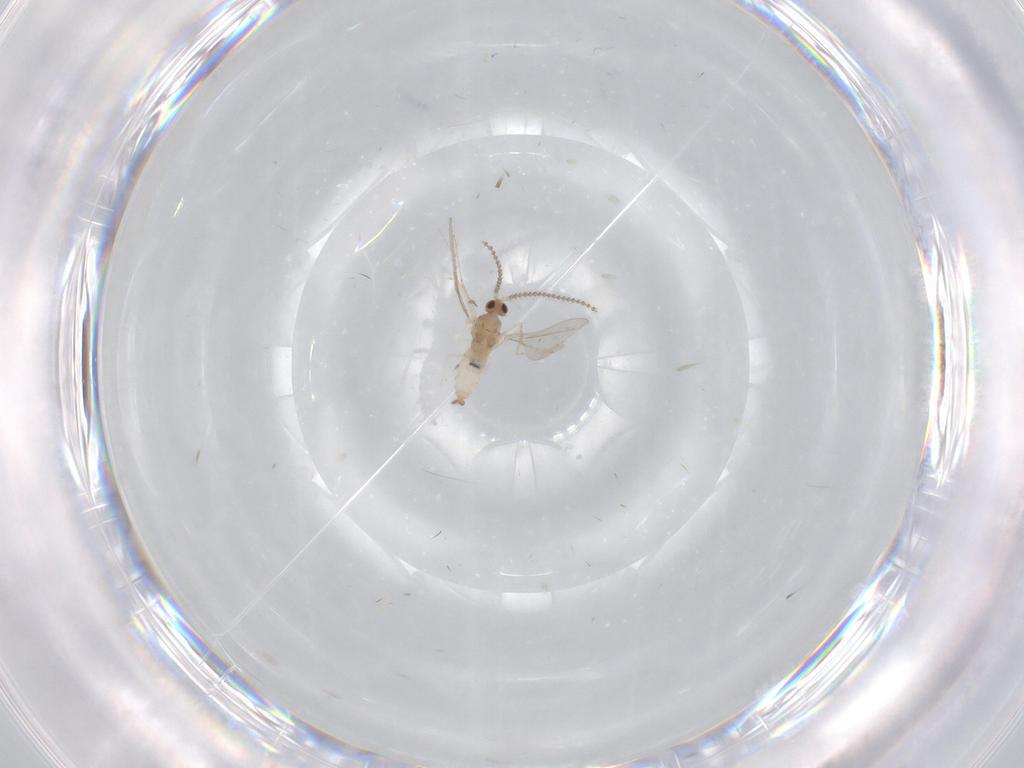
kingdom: Animalia
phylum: Arthropoda
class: Insecta
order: Diptera
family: Cecidomyiidae
